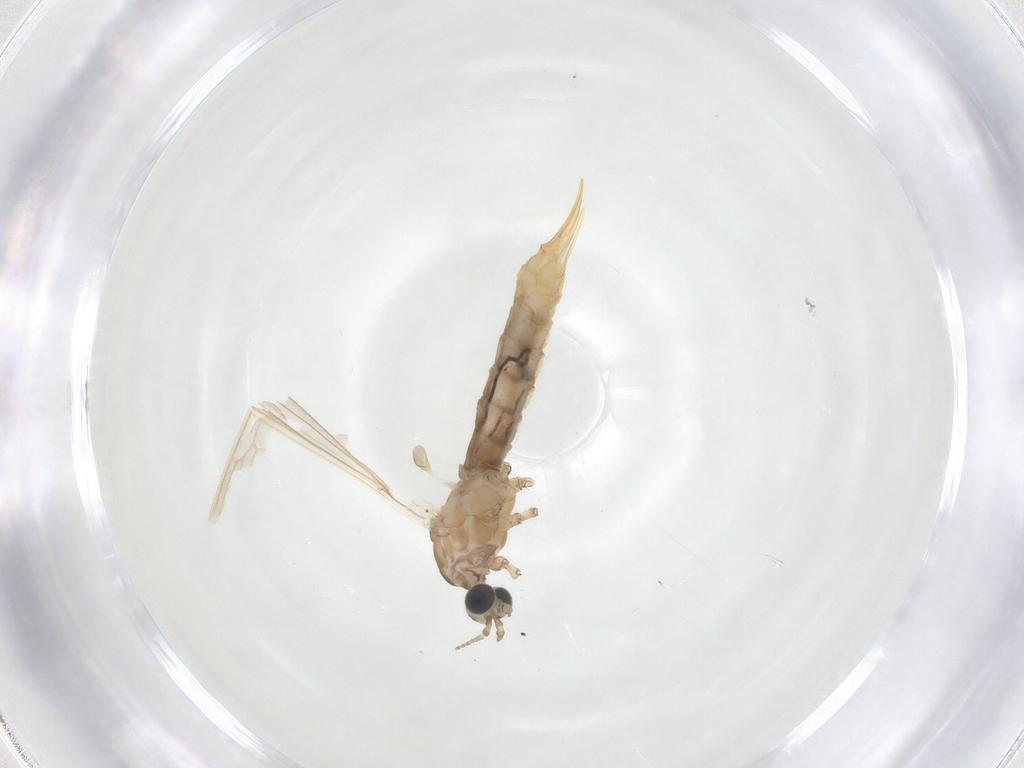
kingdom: Animalia
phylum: Arthropoda
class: Insecta
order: Diptera
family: Limoniidae
